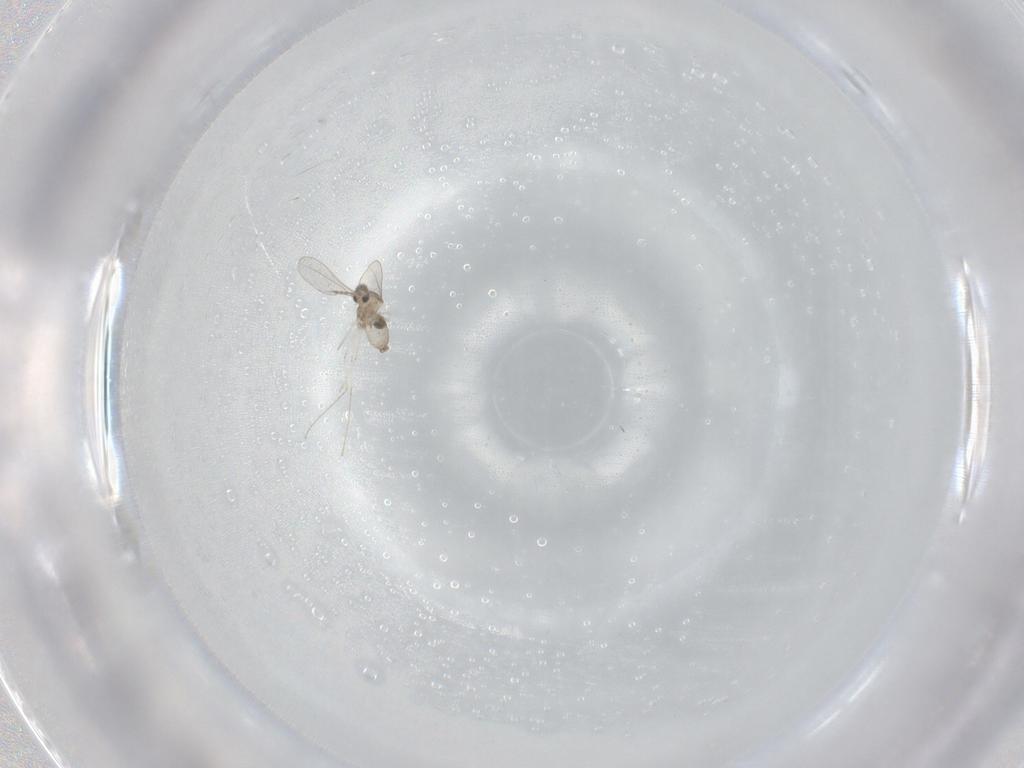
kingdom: Animalia
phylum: Arthropoda
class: Insecta
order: Diptera
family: Cecidomyiidae
